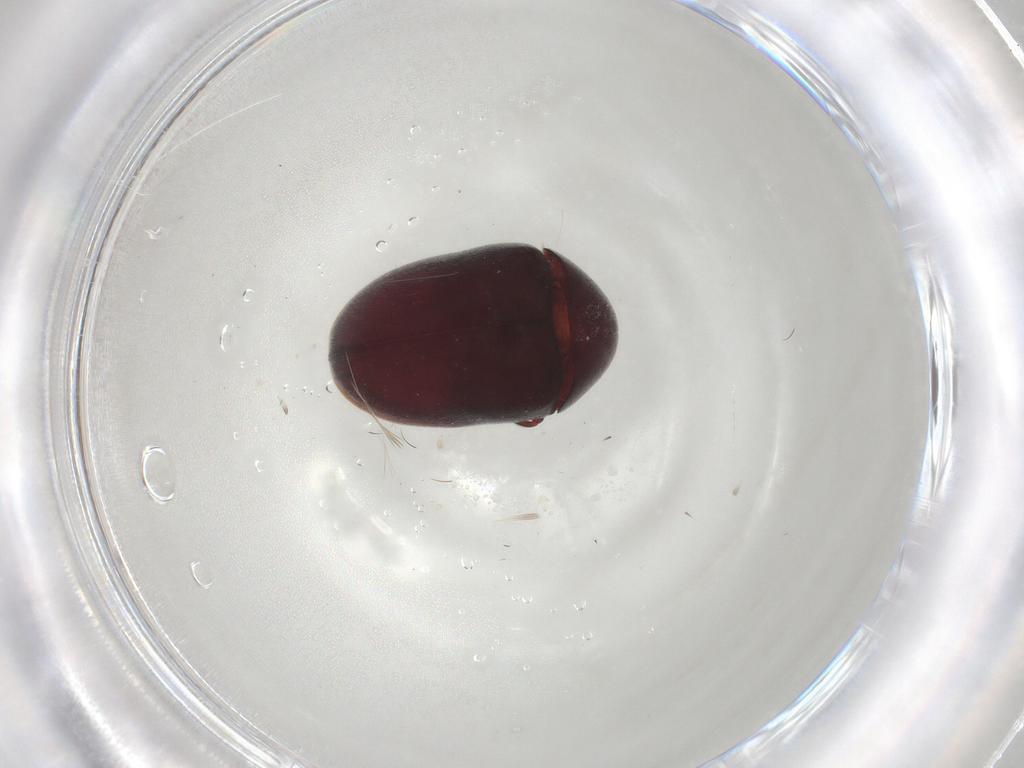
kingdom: Animalia
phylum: Arthropoda
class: Insecta
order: Coleoptera
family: Ptinidae
